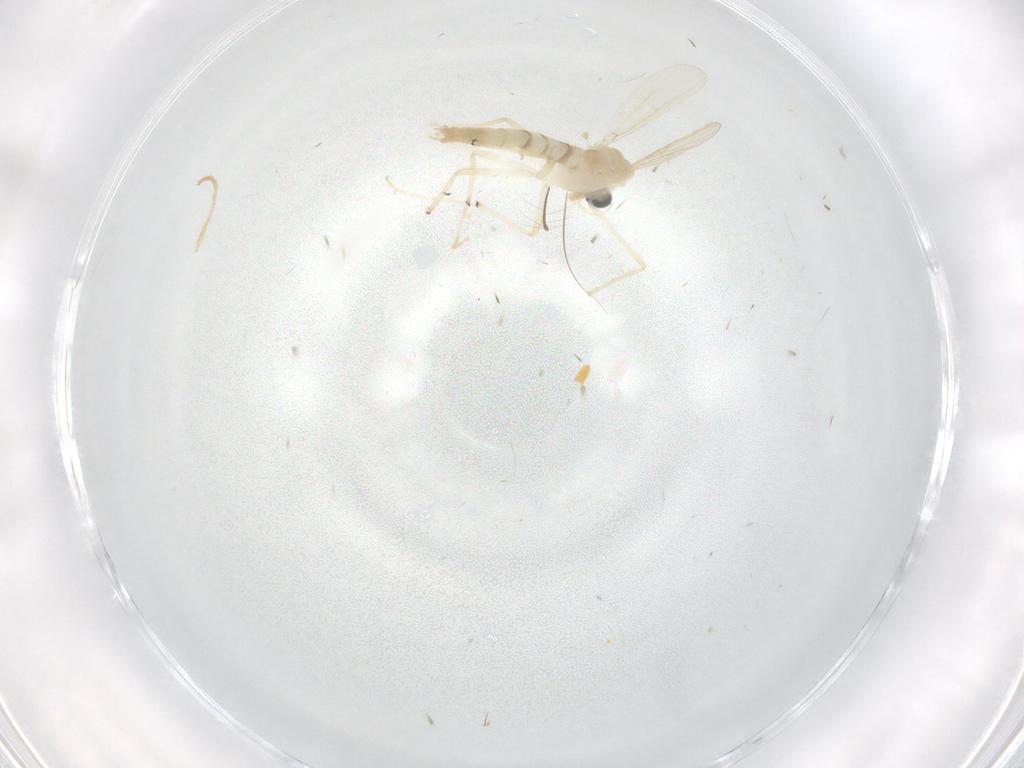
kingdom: Animalia
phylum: Arthropoda
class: Insecta
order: Diptera
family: Chironomidae
